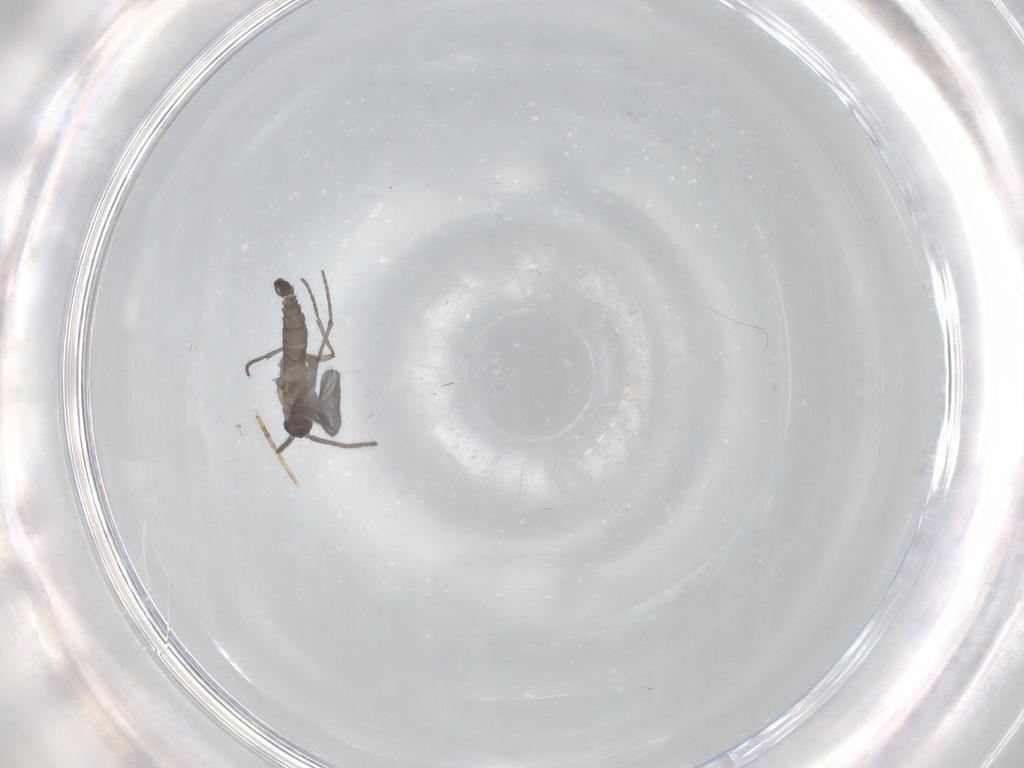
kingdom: Animalia
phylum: Arthropoda
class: Insecta
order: Diptera
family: Sciaridae
